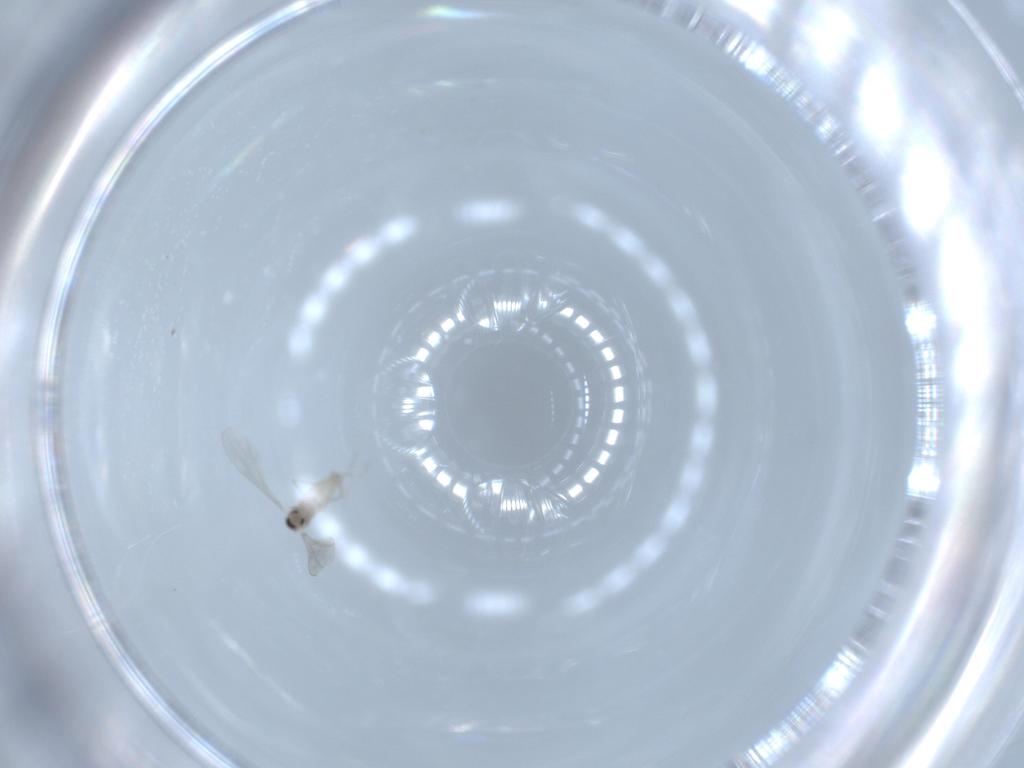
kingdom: Animalia
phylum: Arthropoda
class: Insecta
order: Diptera
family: Cecidomyiidae
